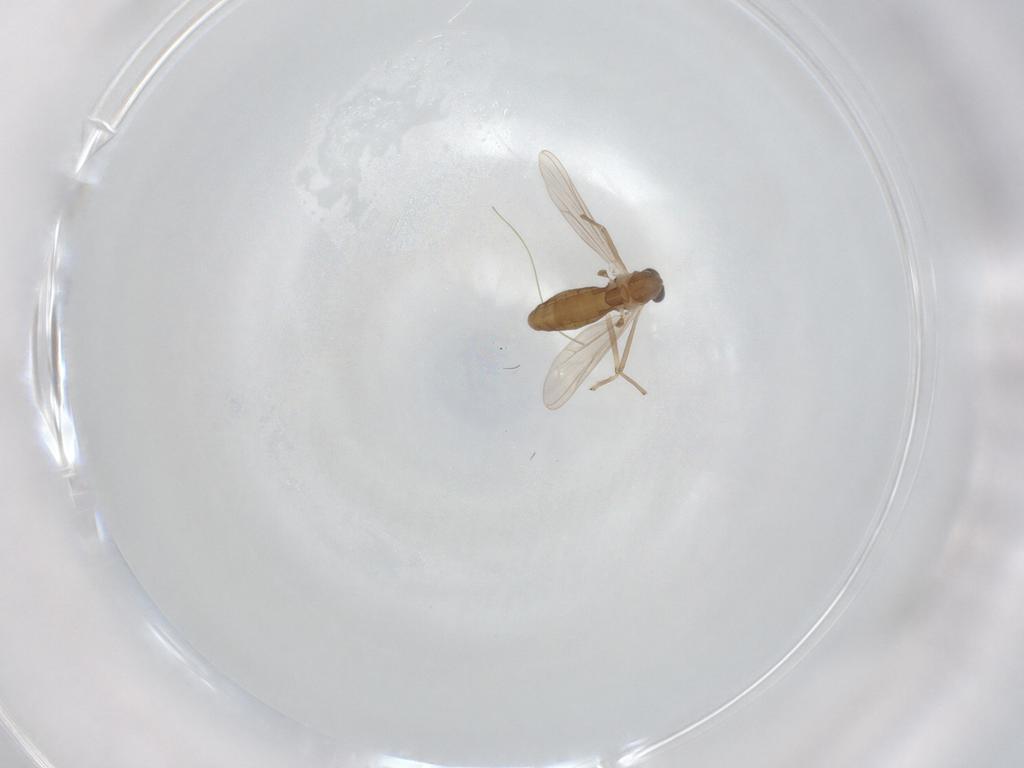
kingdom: Animalia
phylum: Arthropoda
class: Insecta
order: Diptera
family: Chironomidae
